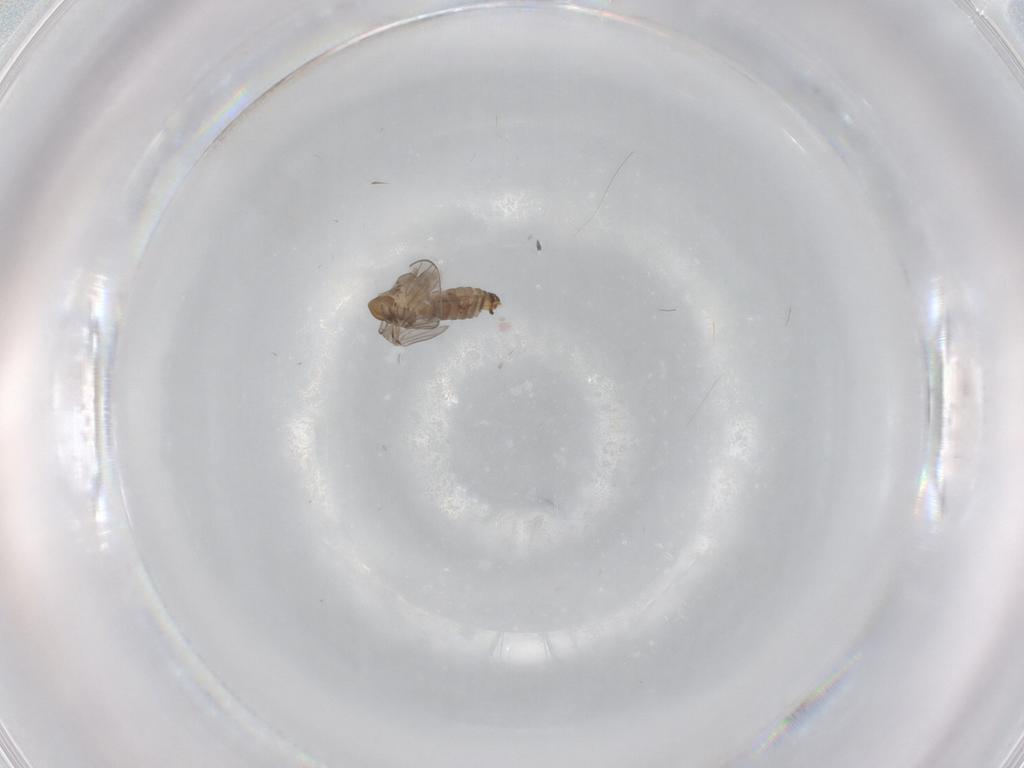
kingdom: Animalia
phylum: Arthropoda
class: Insecta
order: Diptera
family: Psychodidae
